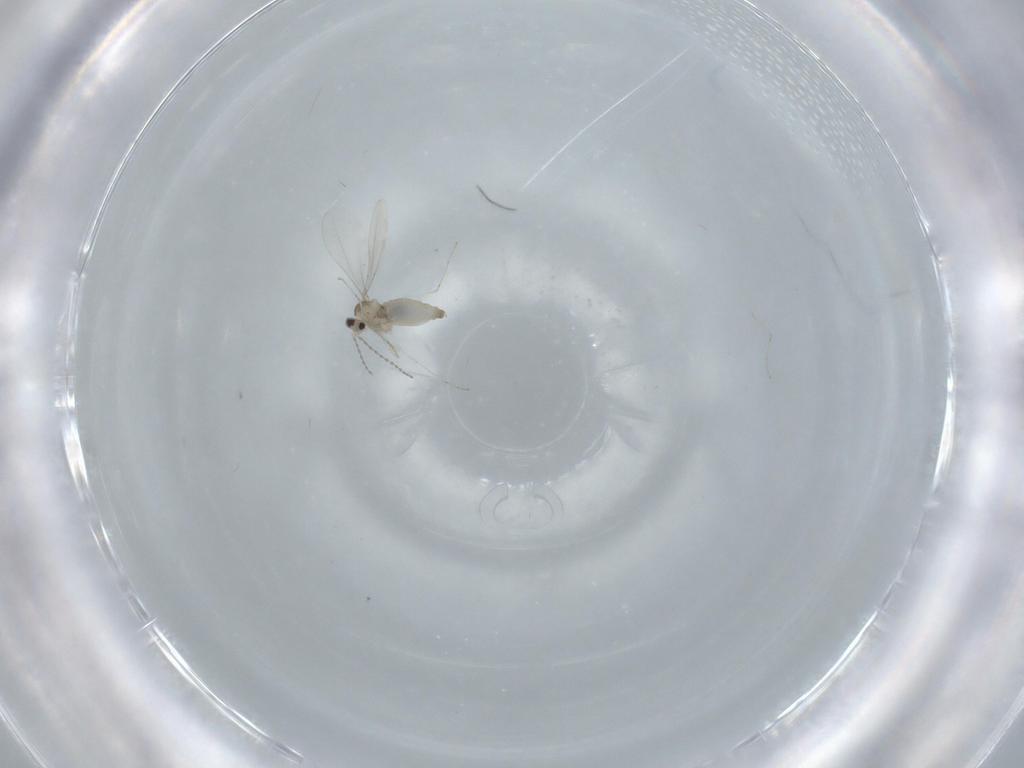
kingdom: Animalia
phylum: Arthropoda
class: Insecta
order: Diptera
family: Cecidomyiidae
